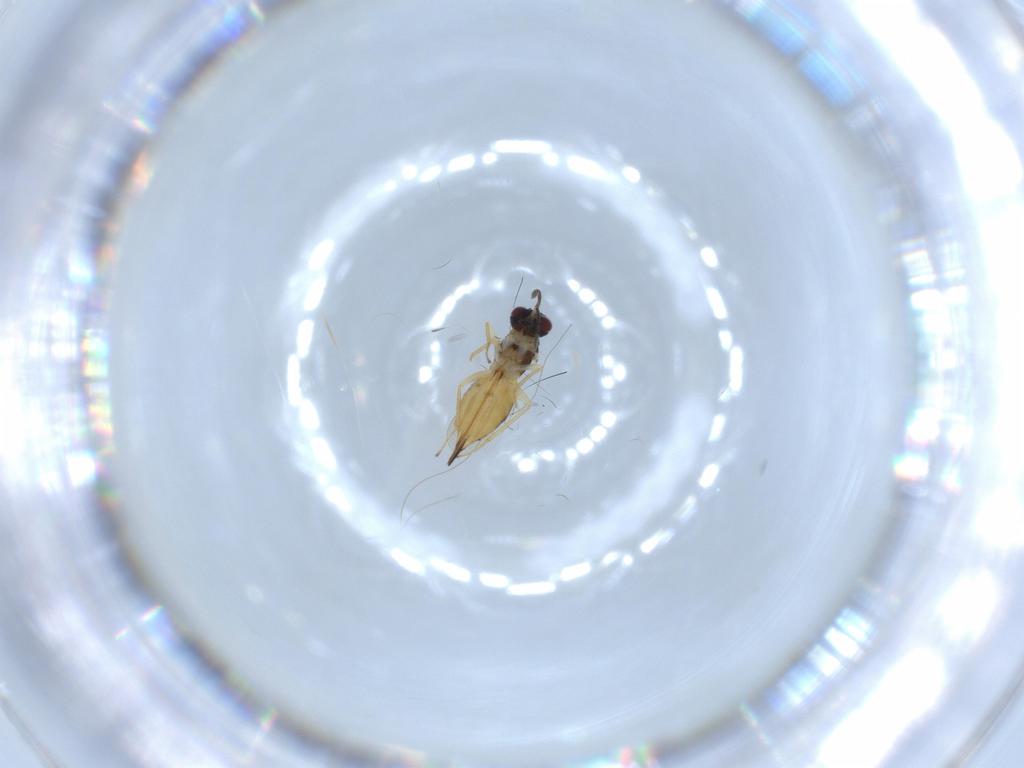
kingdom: Animalia
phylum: Arthropoda
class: Insecta
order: Hymenoptera
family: Eulophidae
